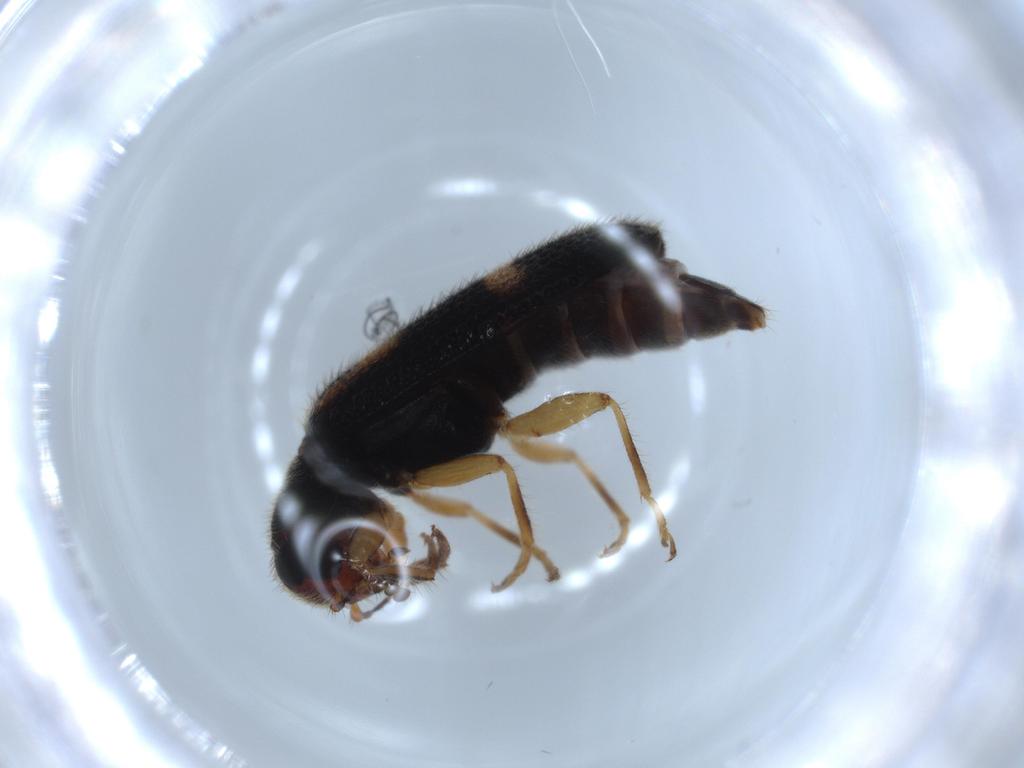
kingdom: Animalia
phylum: Arthropoda
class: Insecta
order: Coleoptera
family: Cleridae
